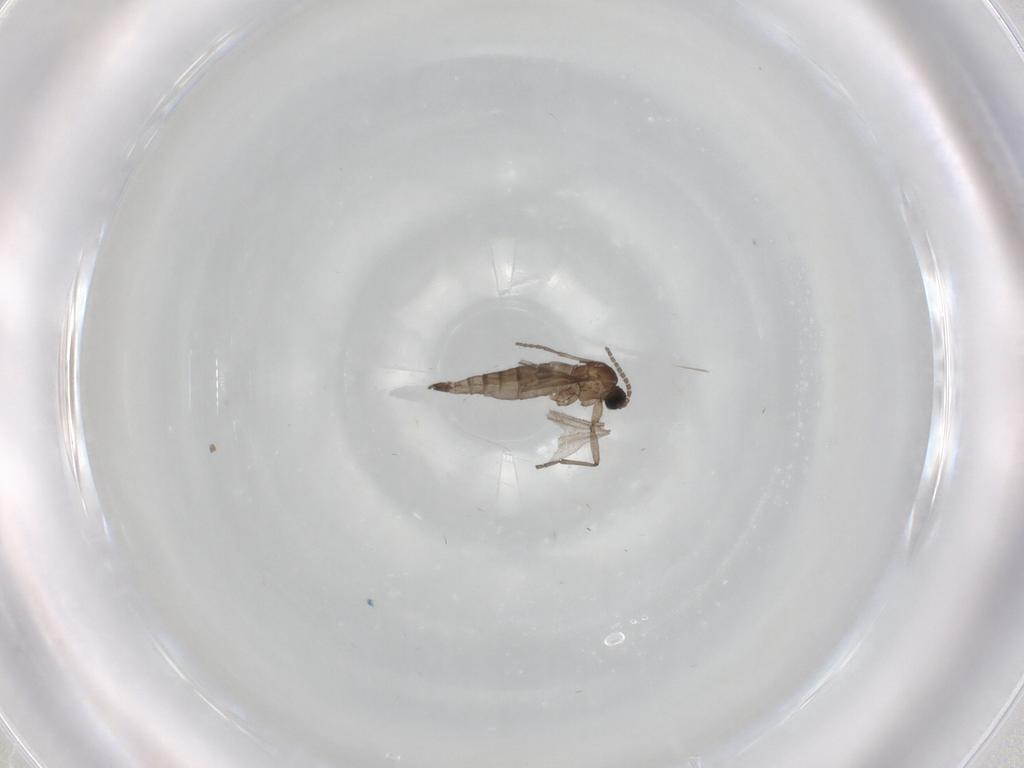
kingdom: Animalia
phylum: Arthropoda
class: Insecta
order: Diptera
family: Sciaridae
